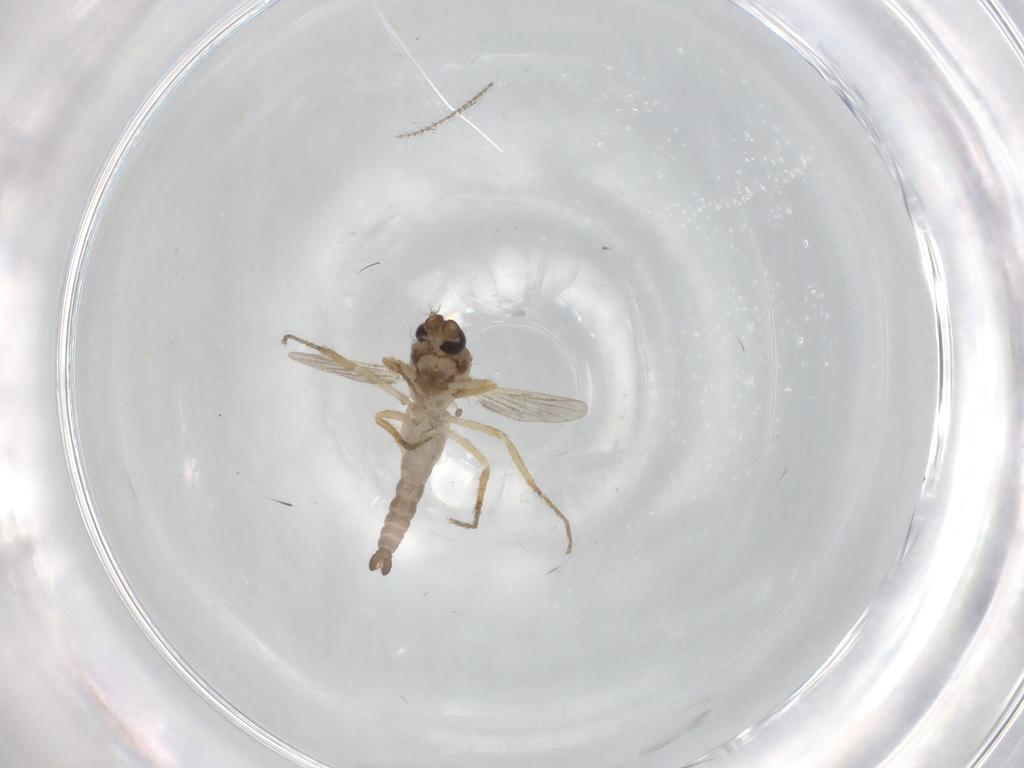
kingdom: Animalia
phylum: Arthropoda
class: Insecta
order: Diptera
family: Ceratopogonidae
